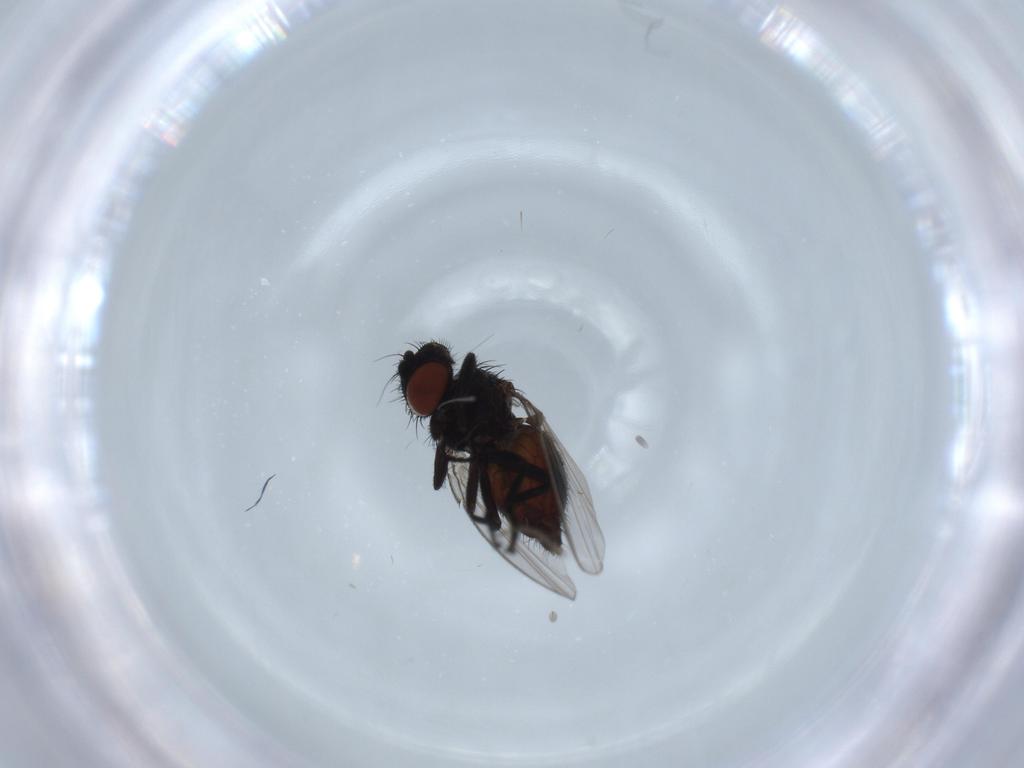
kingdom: Animalia
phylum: Arthropoda
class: Insecta
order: Diptera
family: Milichiidae
